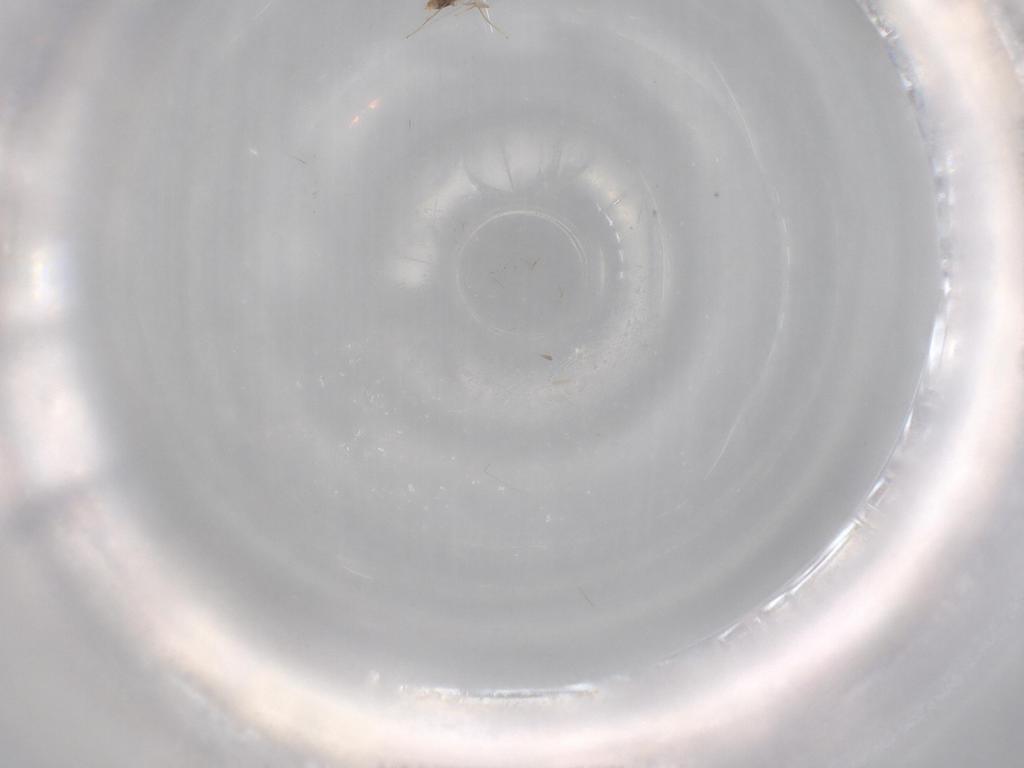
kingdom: Animalia
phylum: Arthropoda
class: Insecta
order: Hymenoptera
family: Mymaridae
